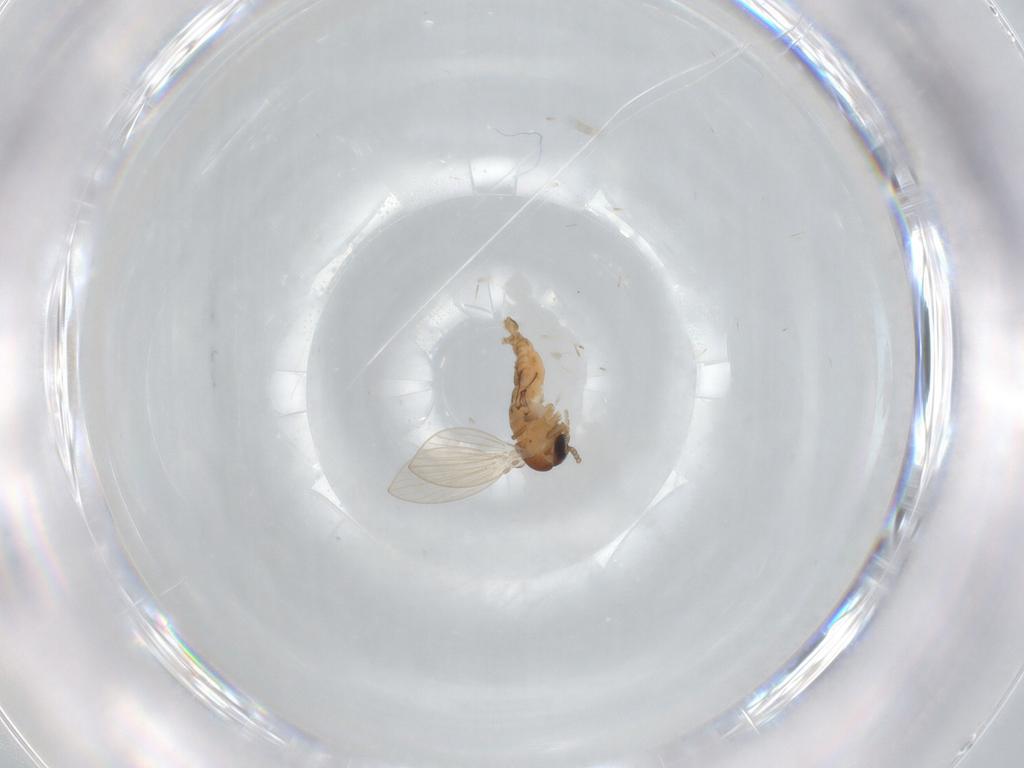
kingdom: Animalia
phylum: Arthropoda
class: Insecta
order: Diptera
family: Psychodidae
